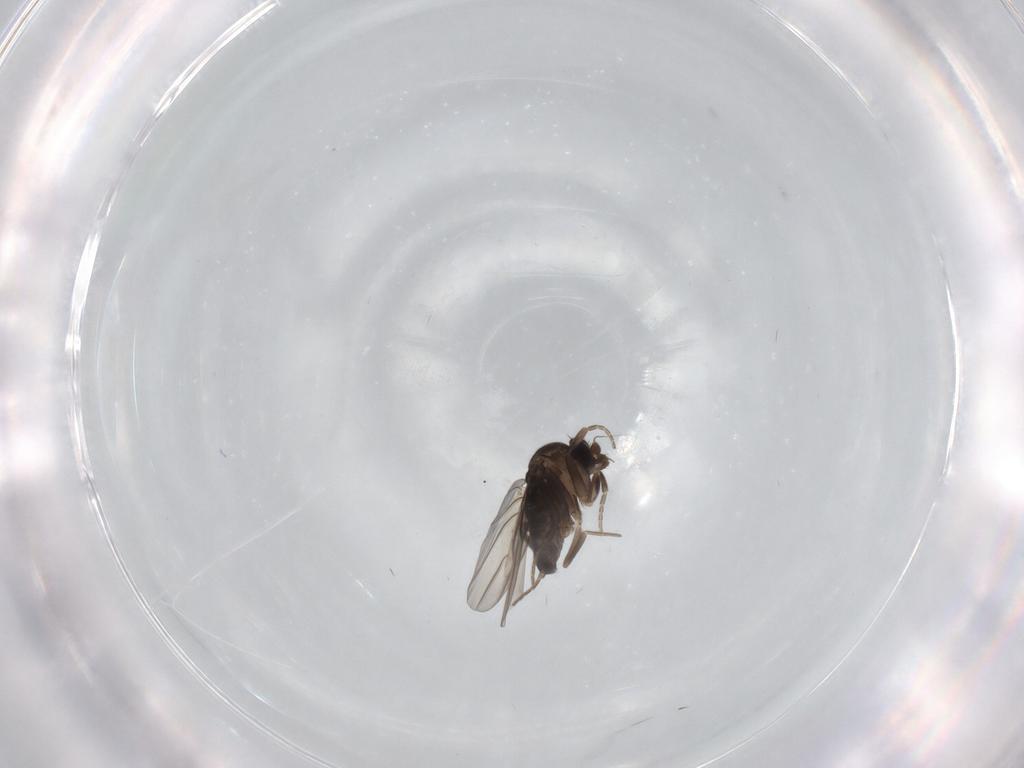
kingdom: Animalia
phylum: Arthropoda
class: Insecta
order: Diptera
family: Phoridae
